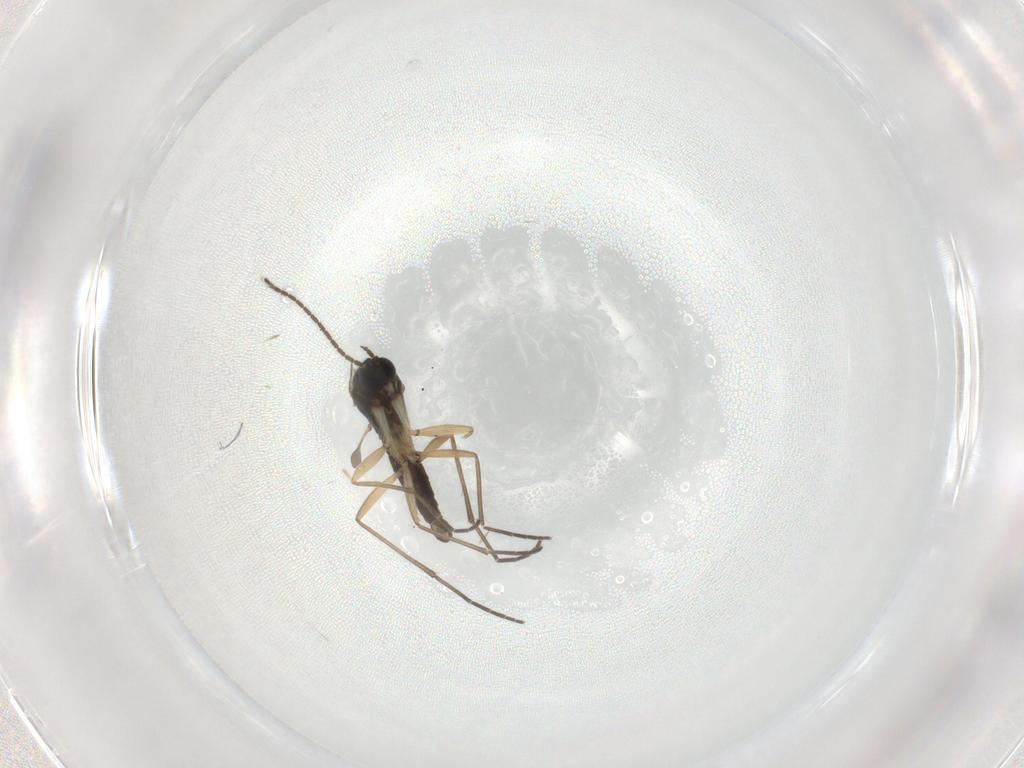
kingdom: Animalia
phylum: Arthropoda
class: Insecta
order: Diptera
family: Sciaridae
